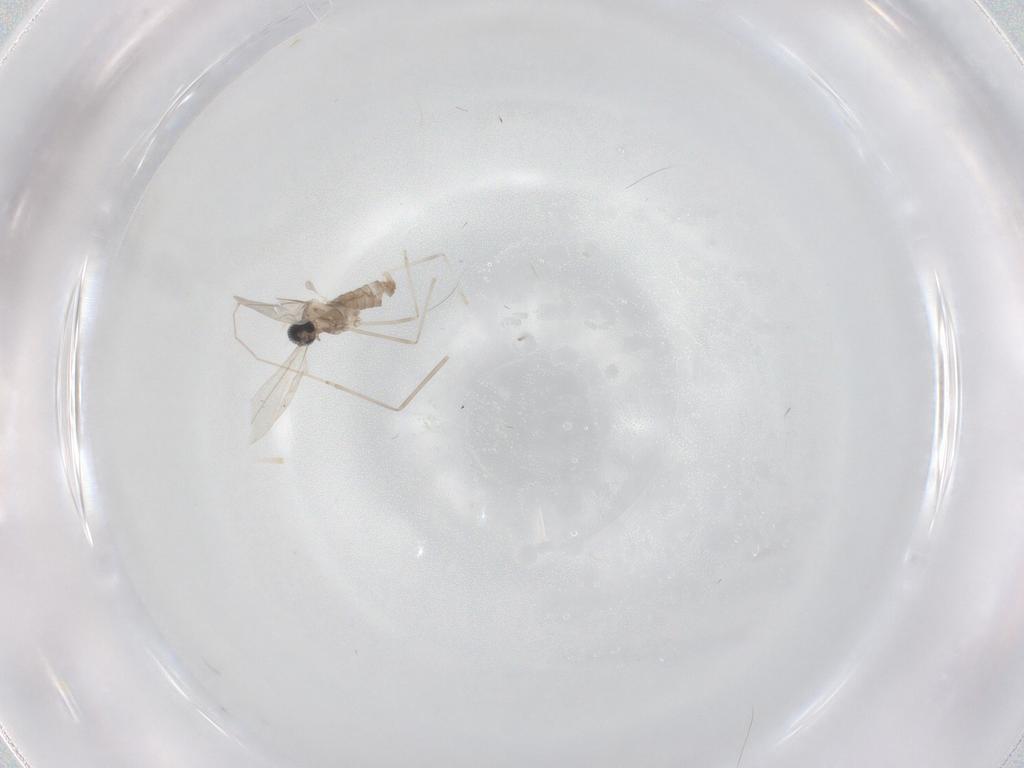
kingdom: Animalia
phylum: Arthropoda
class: Insecta
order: Diptera
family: Cecidomyiidae
